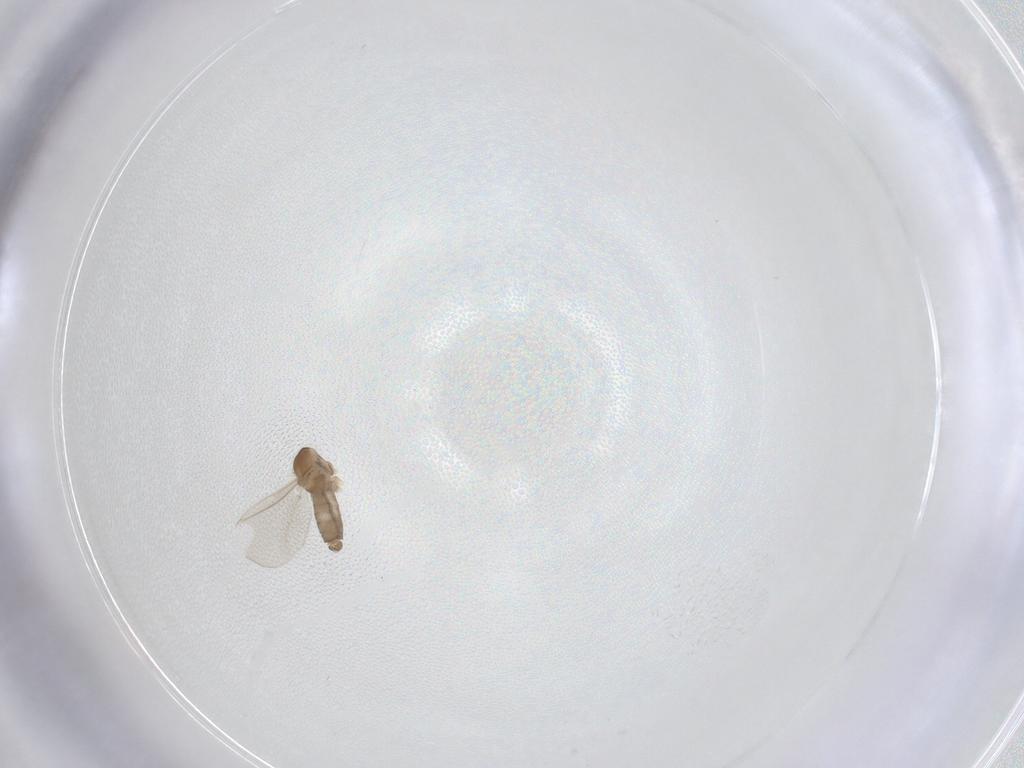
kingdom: Animalia
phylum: Arthropoda
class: Insecta
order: Diptera
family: Cecidomyiidae
